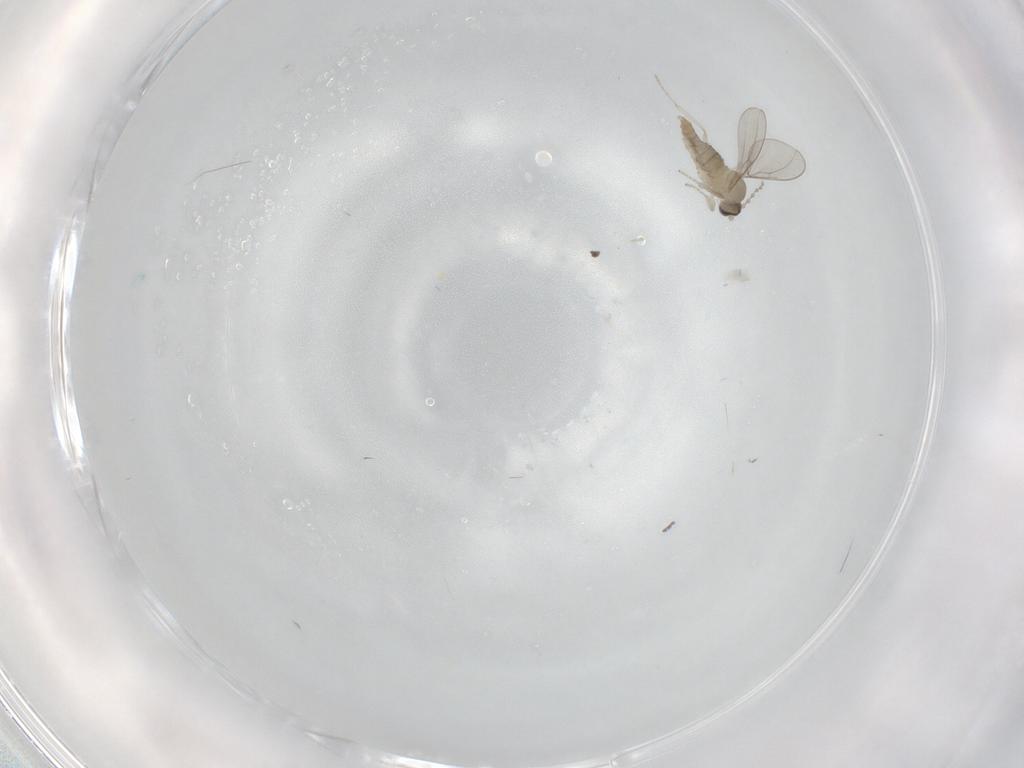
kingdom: Animalia
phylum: Arthropoda
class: Insecta
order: Diptera
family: Cecidomyiidae
